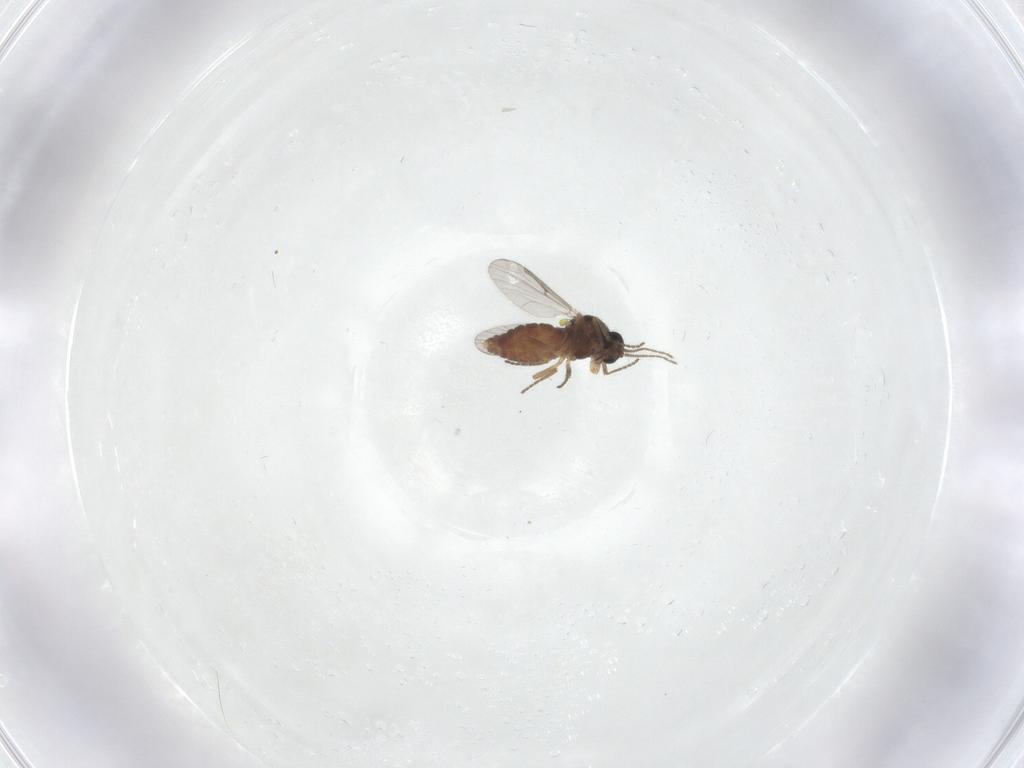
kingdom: Animalia
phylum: Arthropoda
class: Insecta
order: Diptera
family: Ceratopogonidae
